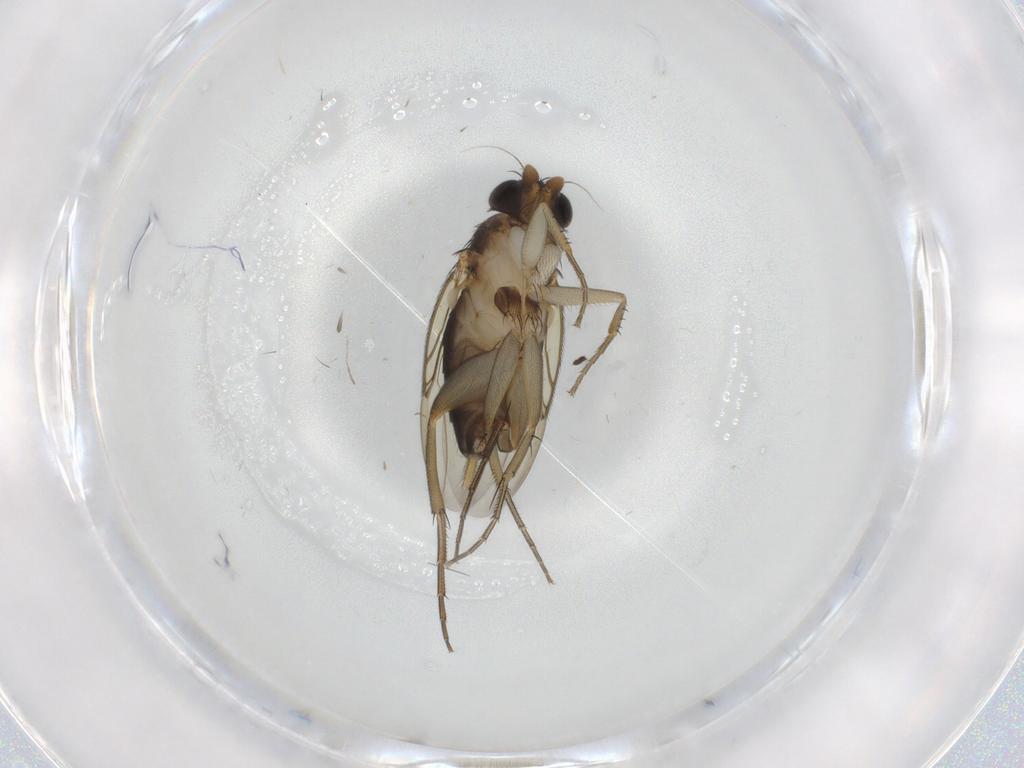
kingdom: Animalia
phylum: Arthropoda
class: Insecta
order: Diptera
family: Phoridae
